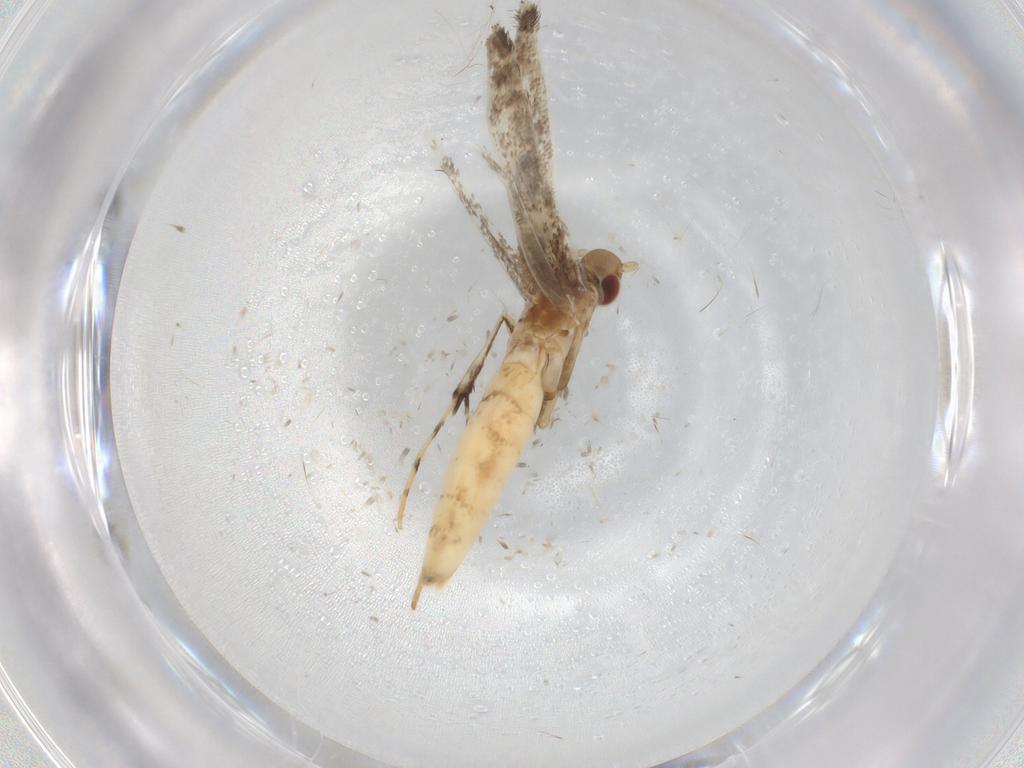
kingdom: Animalia
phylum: Arthropoda
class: Insecta
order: Lepidoptera
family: Gracillariidae
